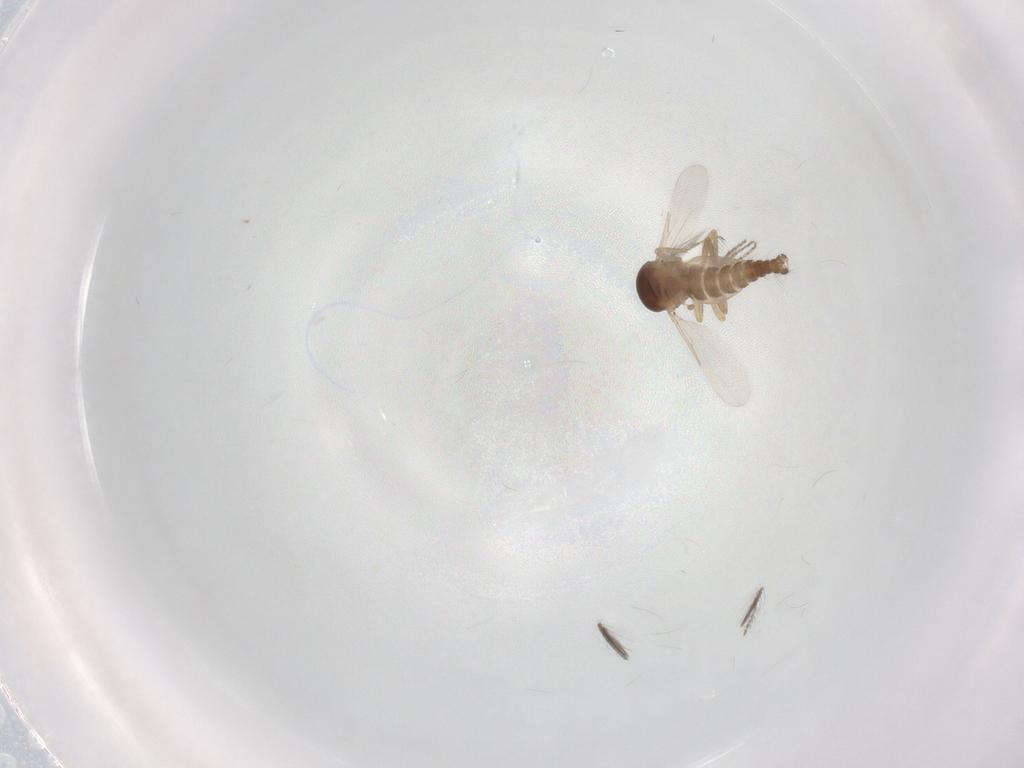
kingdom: Animalia
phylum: Arthropoda
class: Insecta
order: Diptera
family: Ceratopogonidae
